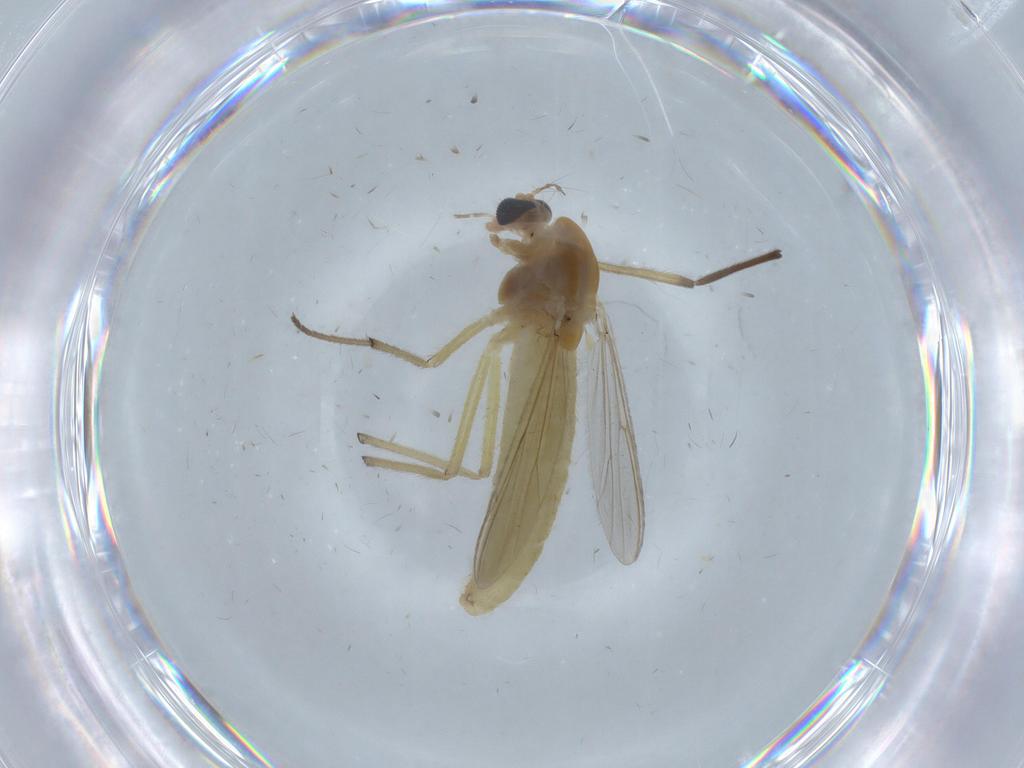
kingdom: Animalia
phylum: Arthropoda
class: Insecta
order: Diptera
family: Chironomidae
